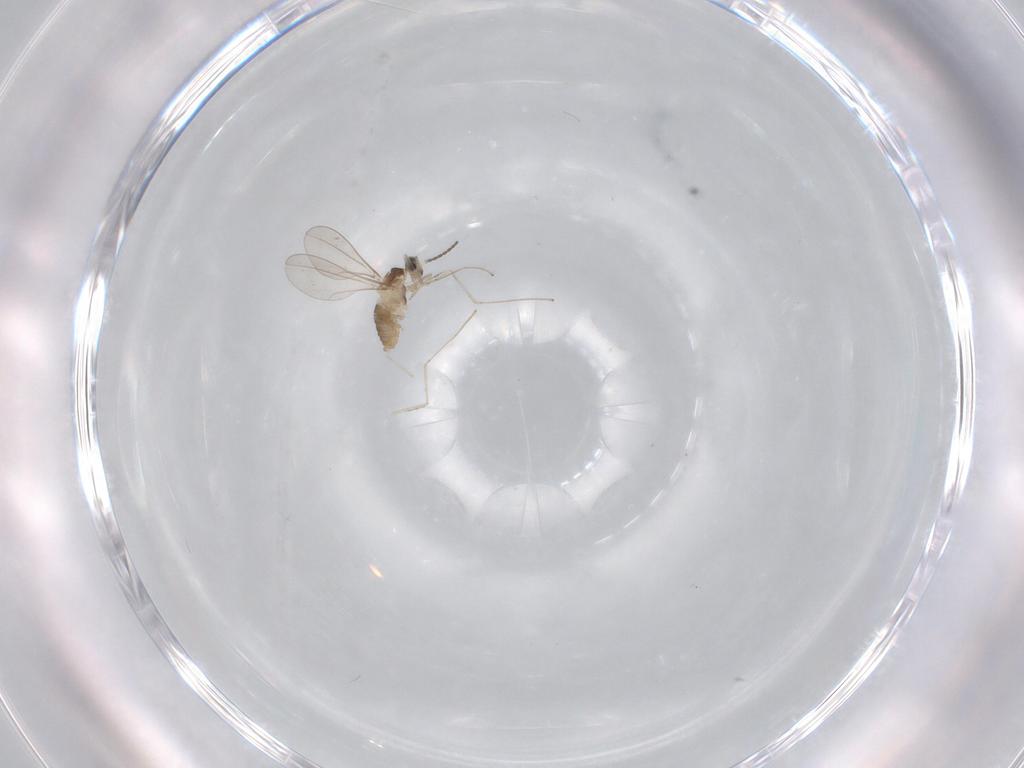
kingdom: Animalia
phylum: Arthropoda
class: Insecta
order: Diptera
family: Cecidomyiidae
